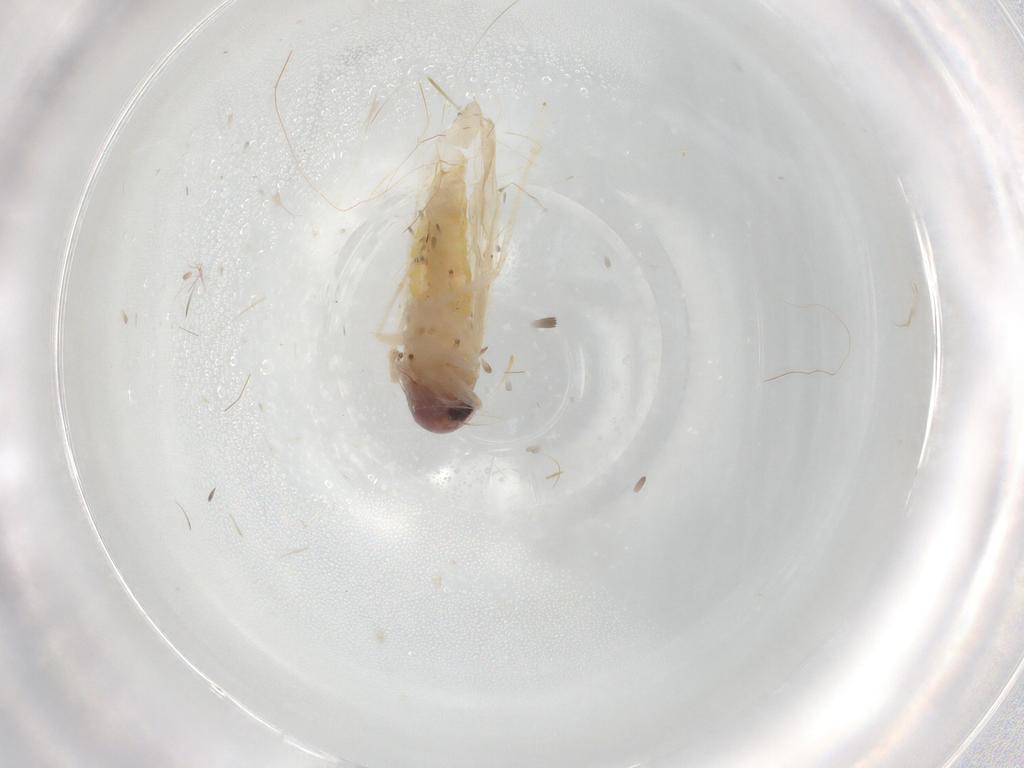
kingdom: Animalia
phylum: Arthropoda
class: Insecta
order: Hemiptera
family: Cicadellidae
